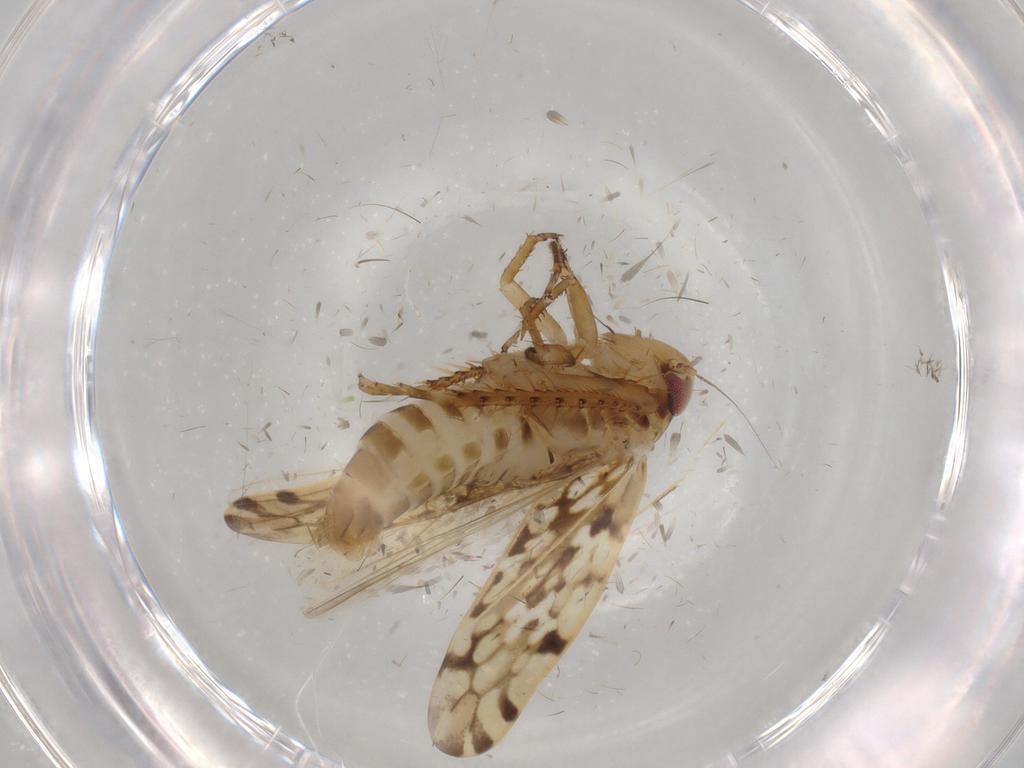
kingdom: Animalia
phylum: Arthropoda
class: Insecta
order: Hemiptera
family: Cicadellidae
